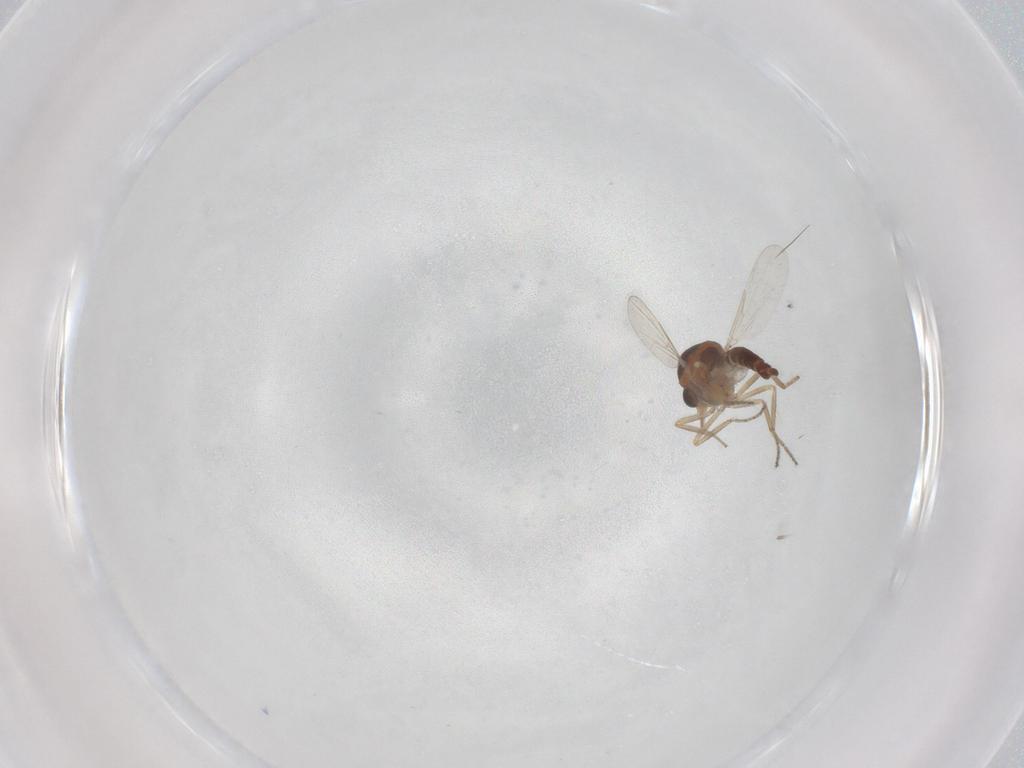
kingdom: Animalia
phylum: Arthropoda
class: Insecta
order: Diptera
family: Ceratopogonidae
